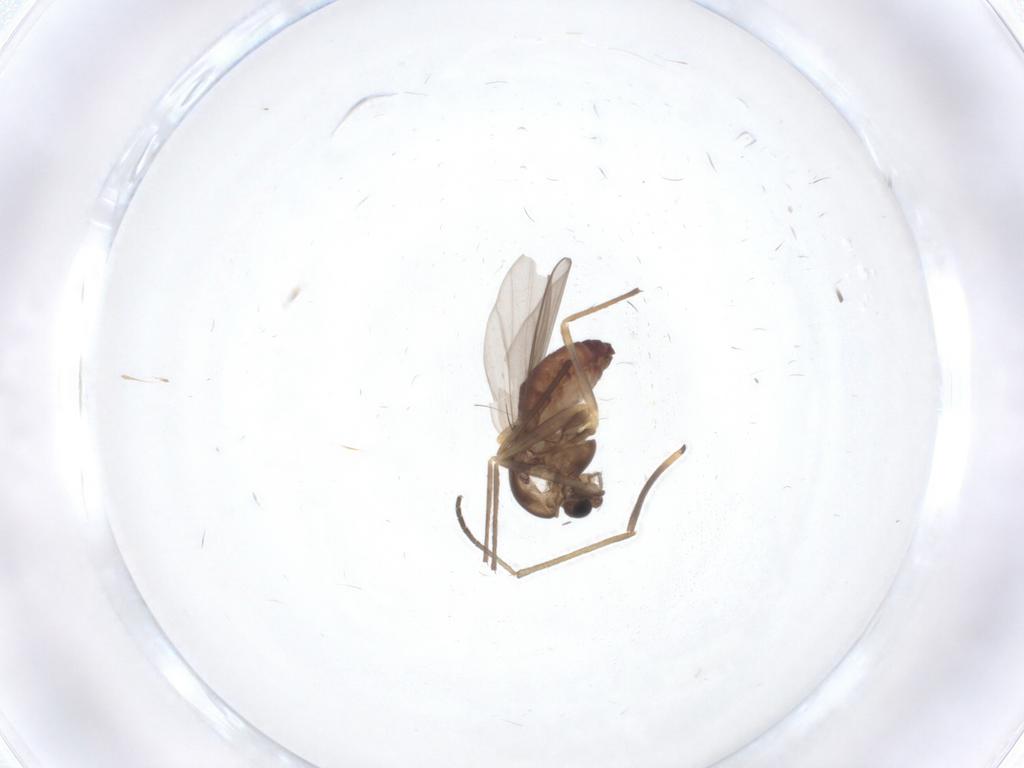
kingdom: Animalia
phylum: Arthropoda
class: Insecta
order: Diptera
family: Chironomidae
